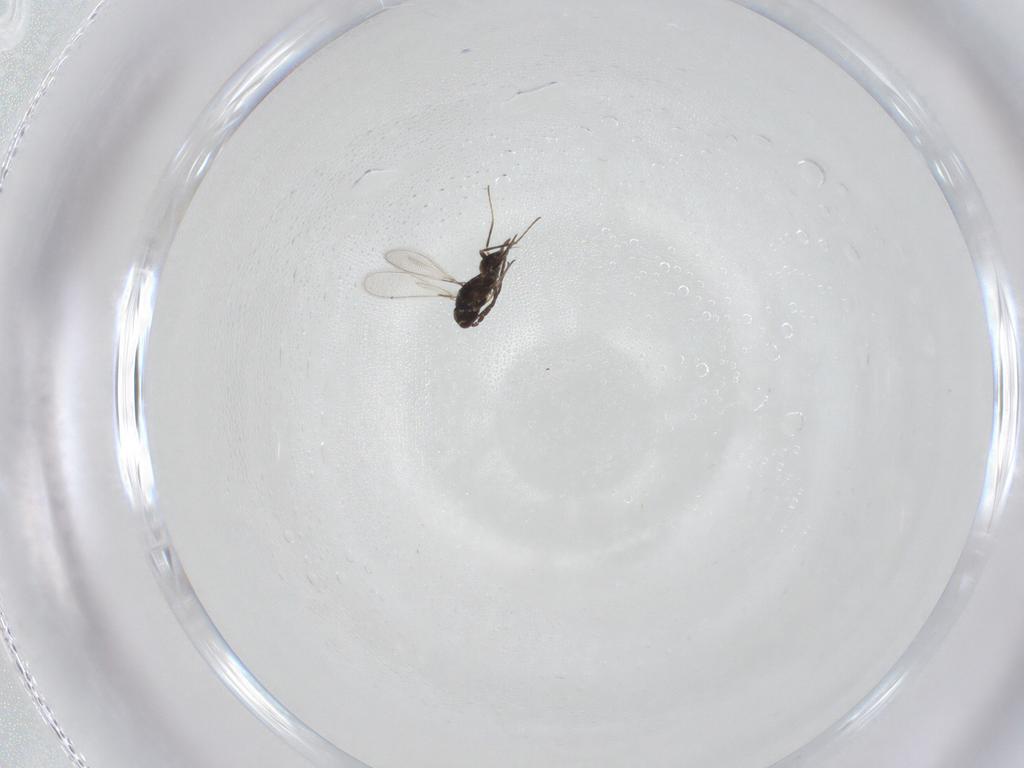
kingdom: Animalia
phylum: Arthropoda
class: Insecta
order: Hymenoptera
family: Mymaridae
